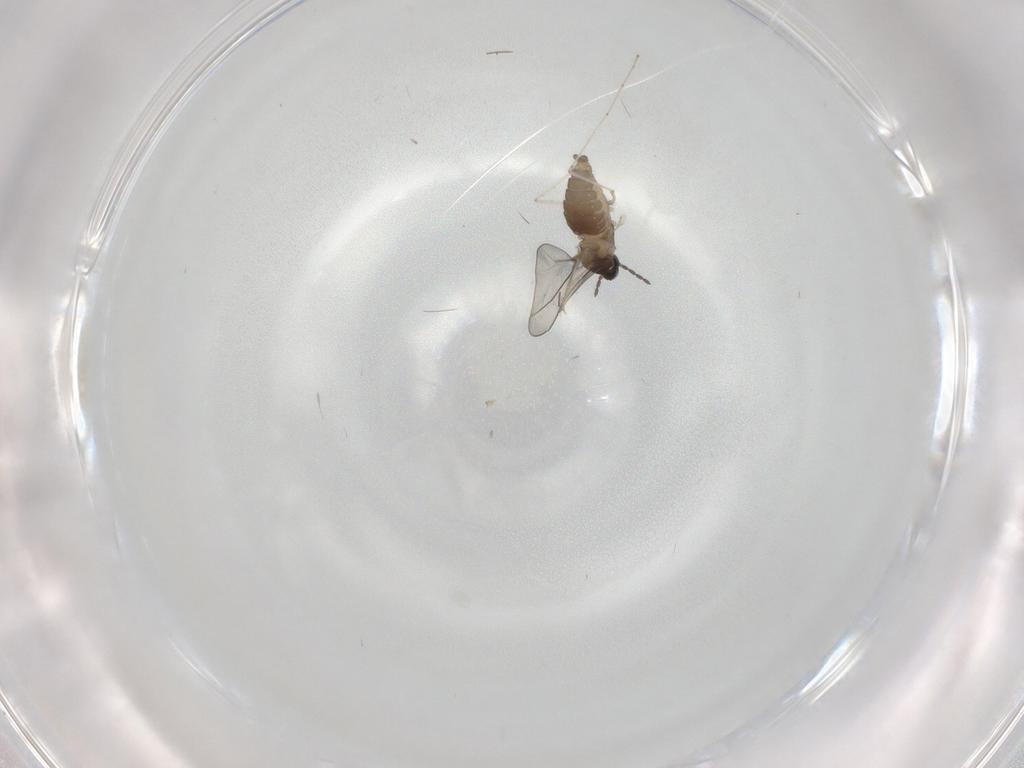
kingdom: Animalia
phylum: Arthropoda
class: Insecta
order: Diptera
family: Cecidomyiidae
